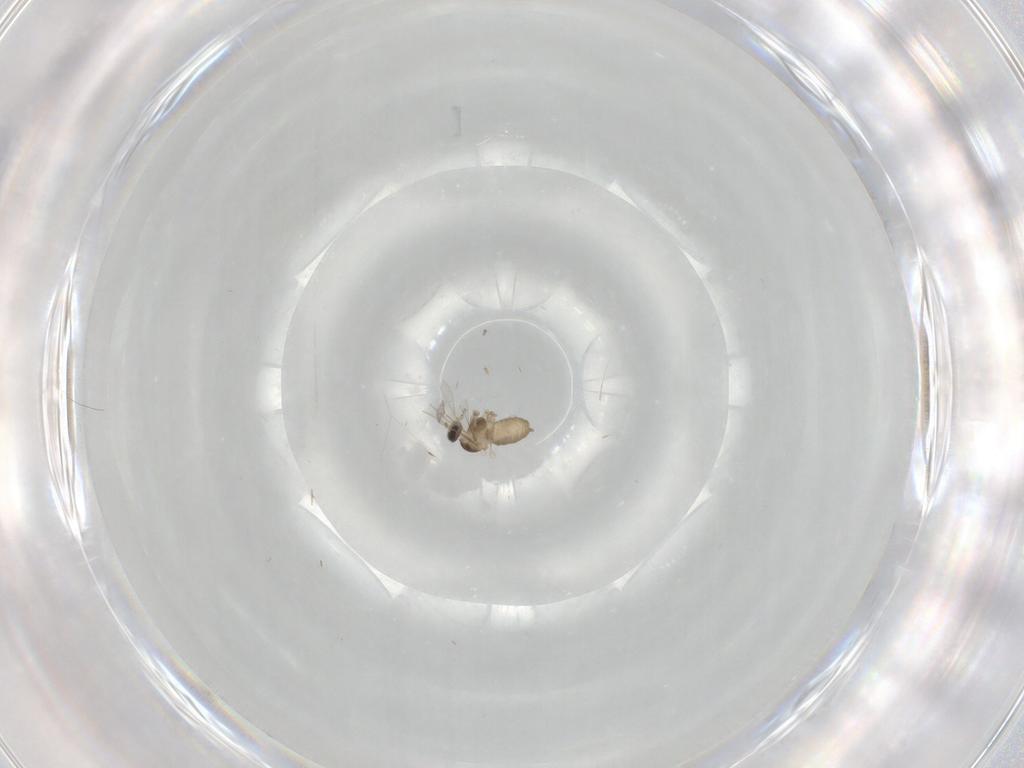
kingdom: Animalia
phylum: Arthropoda
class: Insecta
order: Diptera
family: Cecidomyiidae
